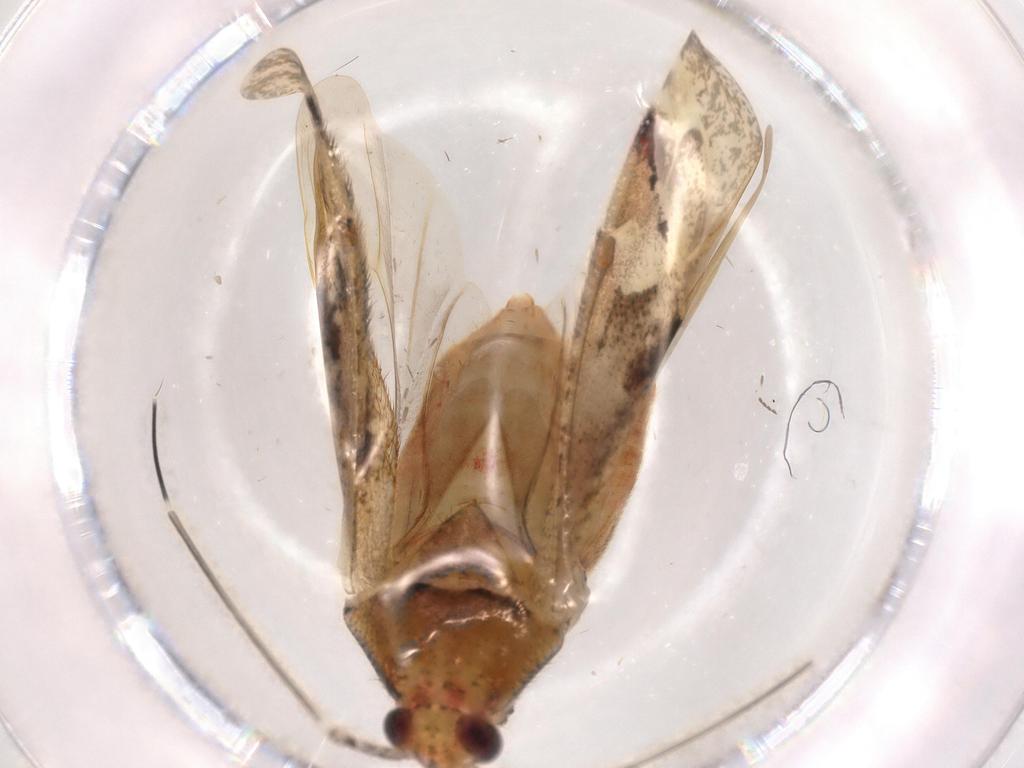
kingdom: Animalia
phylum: Arthropoda
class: Insecta
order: Hemiptera
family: Miridae
